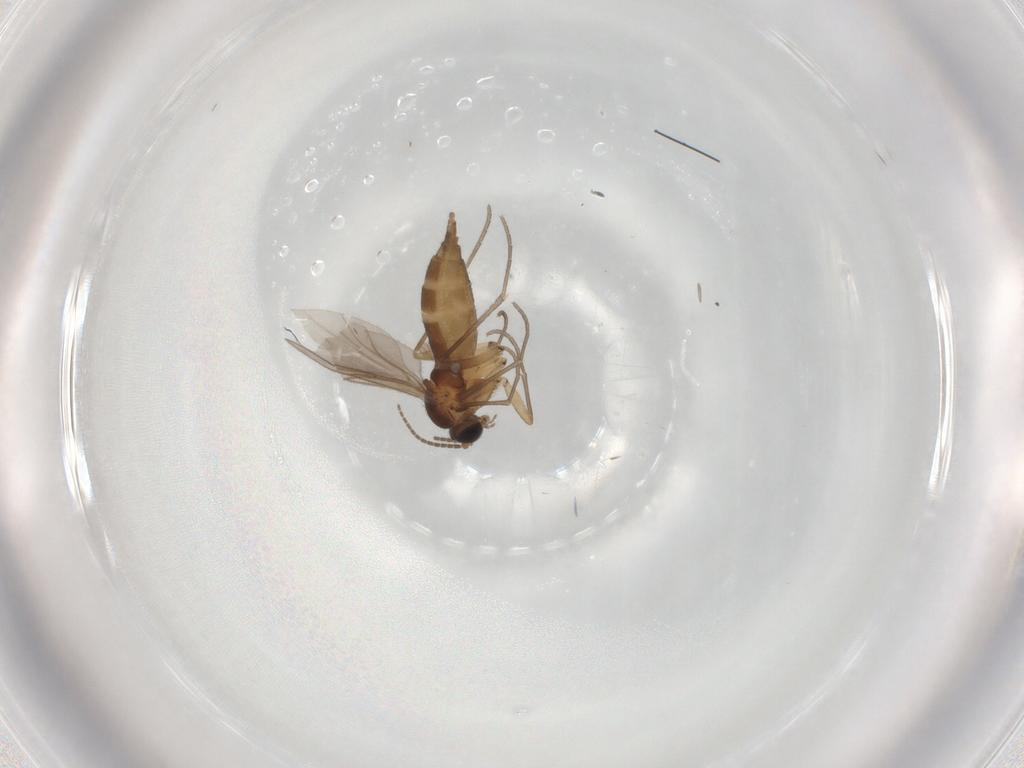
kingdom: Animalia
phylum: Arthropoda
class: Insecta
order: Diptera
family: Sciaridae
